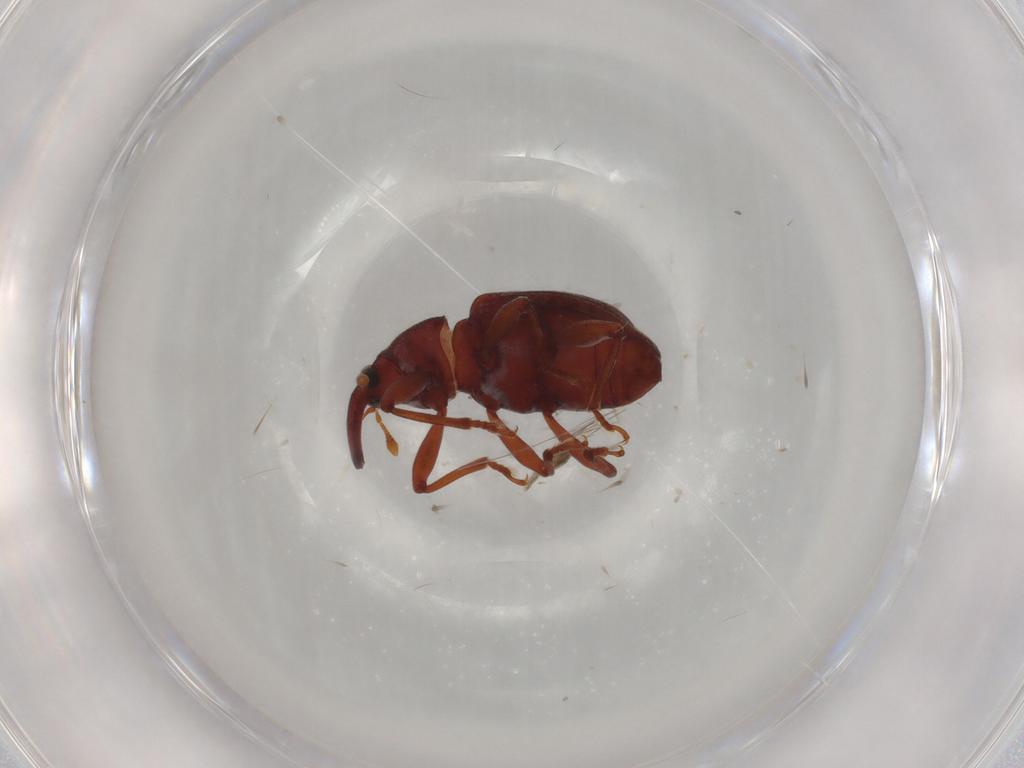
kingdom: Animalia
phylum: Arthropoda
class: Insecta
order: Coleoptera
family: Curculionidae
